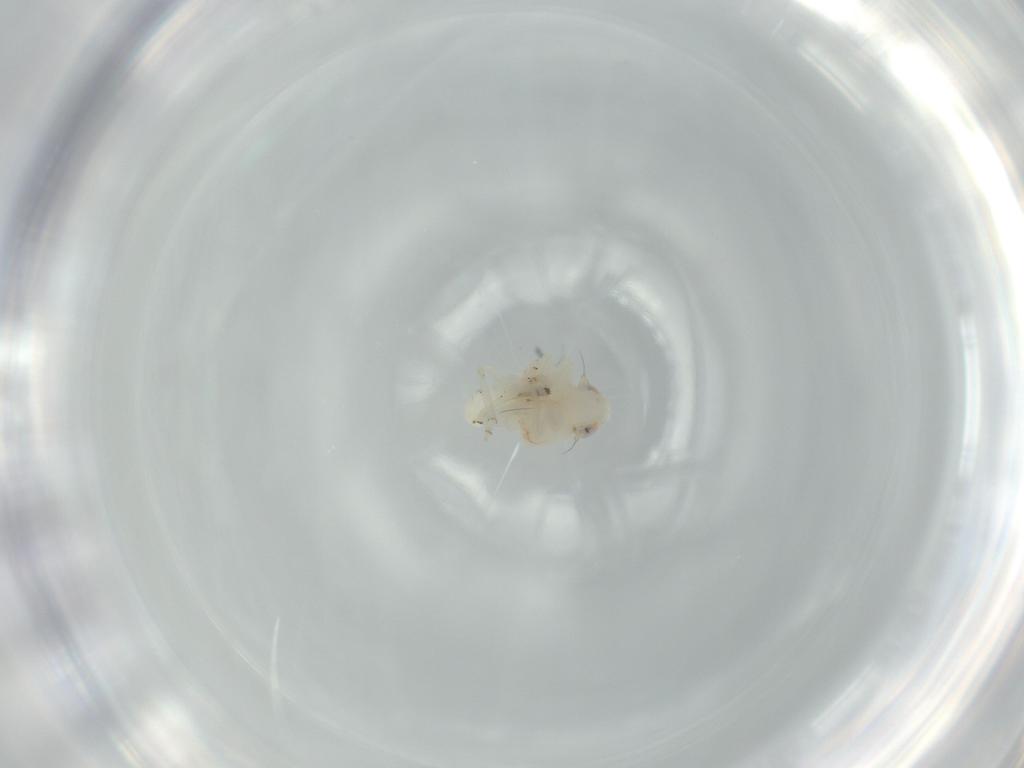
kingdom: Animalia
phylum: Arthropoda
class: Insecta
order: Hemiptera
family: Nogodinidae
